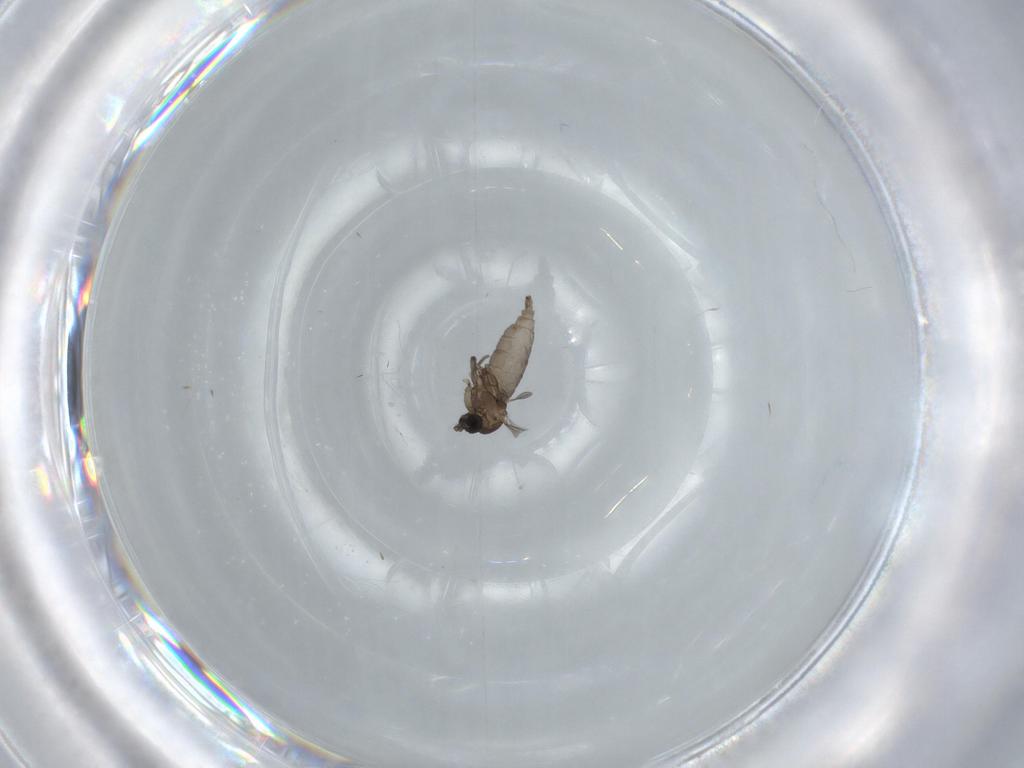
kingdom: Animalia
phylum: Arthropoda
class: Insecta
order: Diptera
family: Sciaridae
